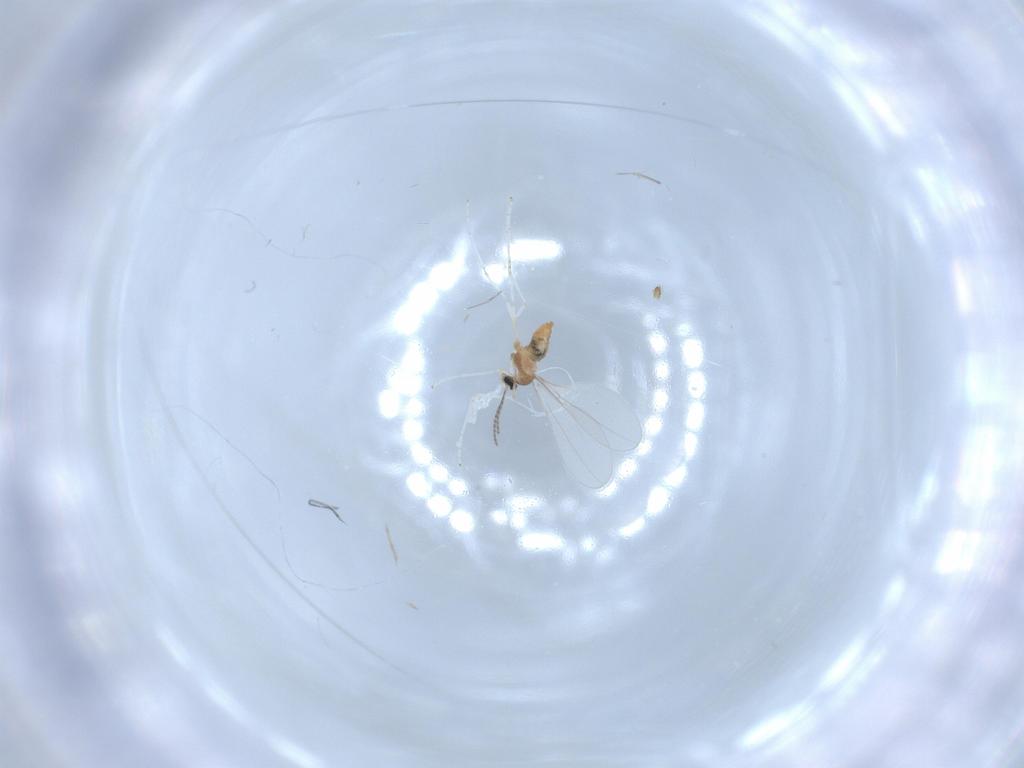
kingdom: Animalia
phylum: Arthropoda
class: Insecta
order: Diptera
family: Cecidomyiidae
